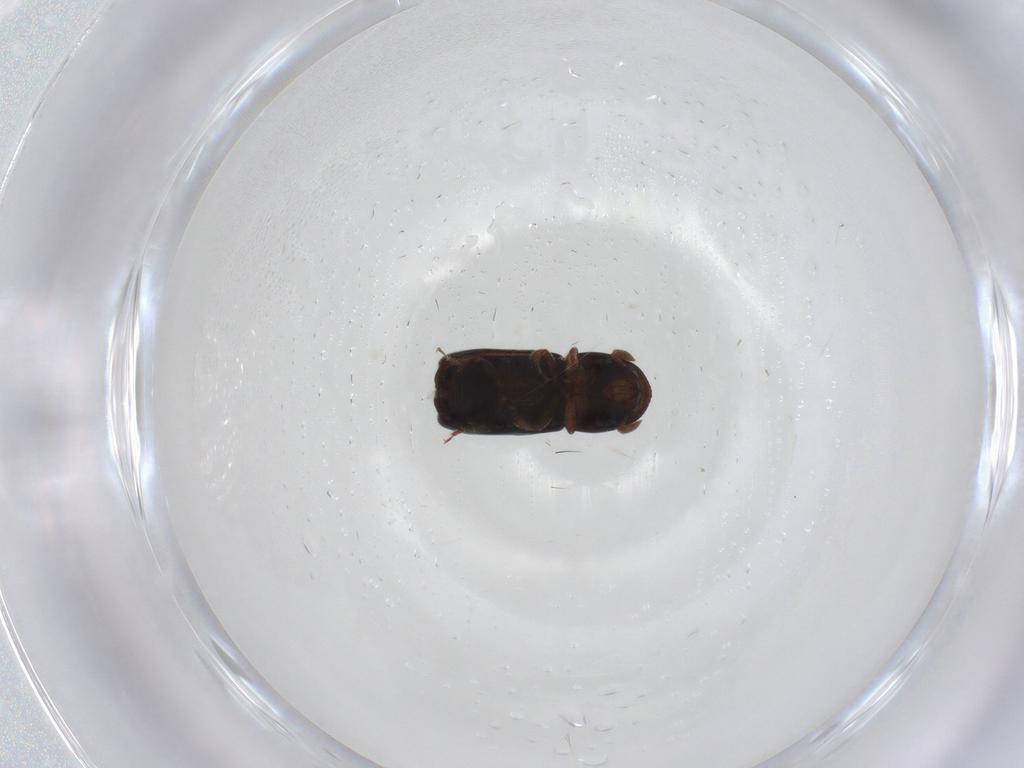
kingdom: Animalia
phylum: Arthropoda
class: Insecta
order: Coleoptera
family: Curculionidae
